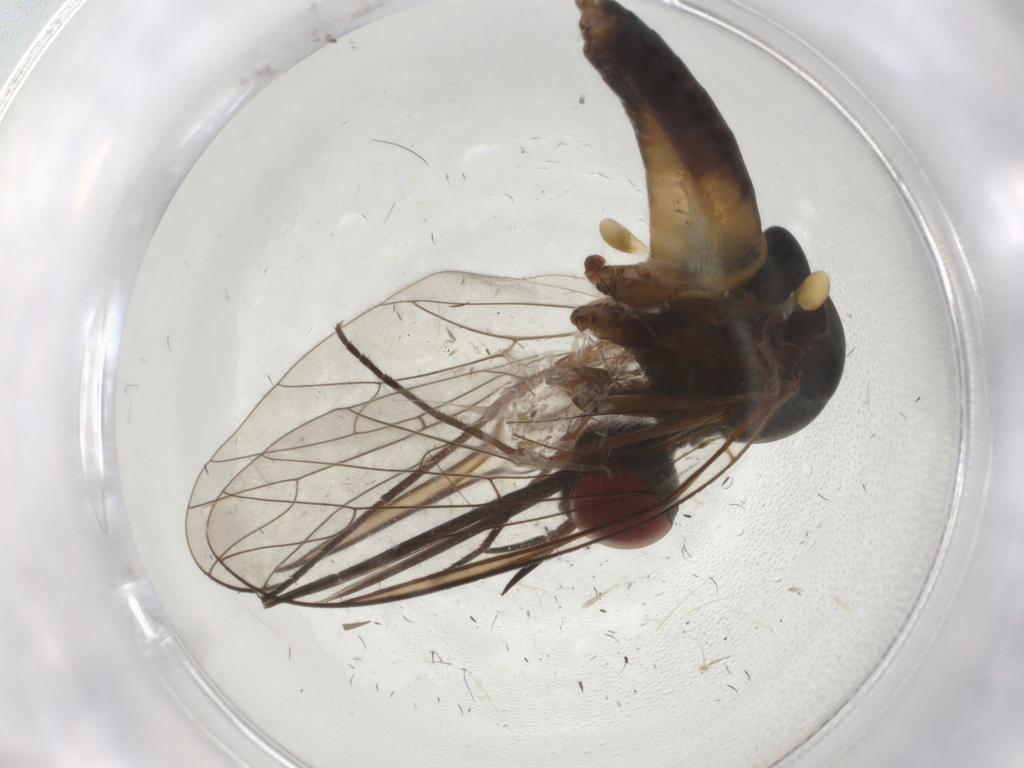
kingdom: Animalia
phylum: Arthropoda
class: Insecta
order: Diptera
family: Bombyliidae
